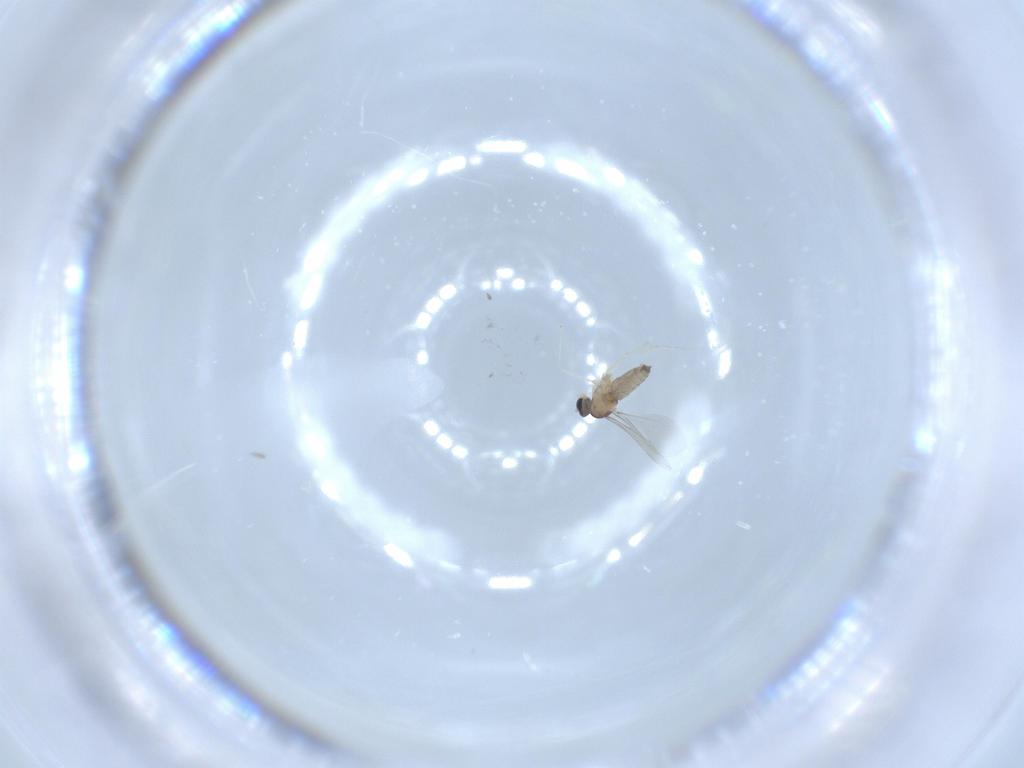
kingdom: Animalia
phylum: Arthropoda
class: Insecta
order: Diptera
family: Cecidomyiidae
